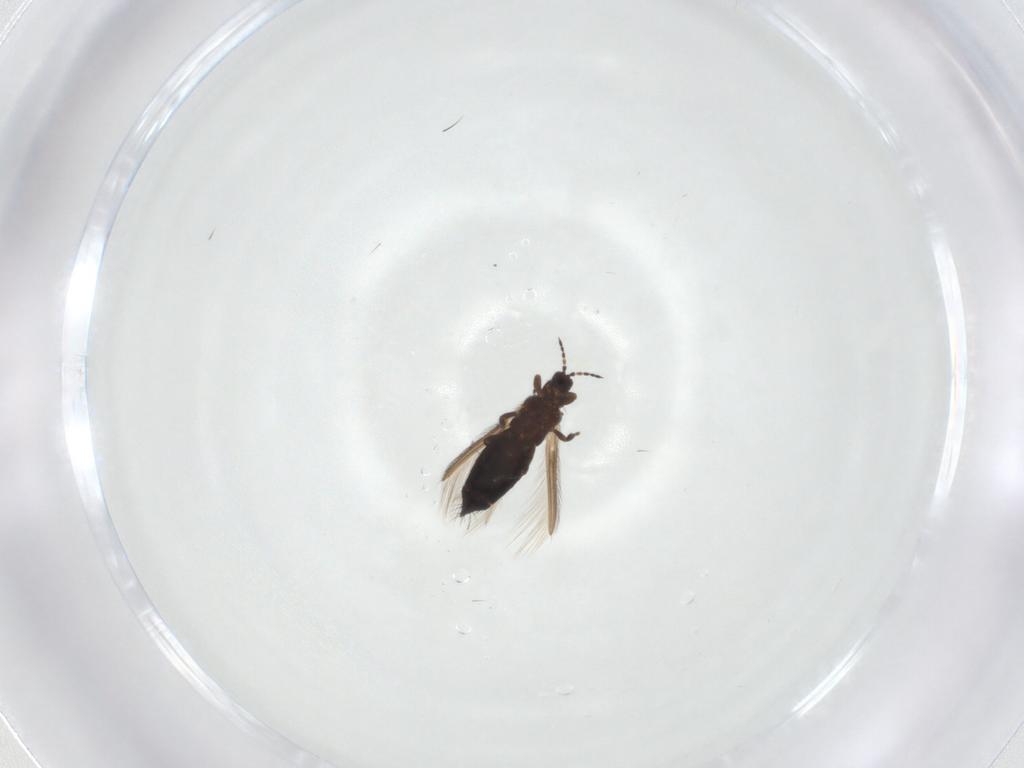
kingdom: Animalia
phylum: Arthropoda
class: Insecta
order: Thysanoptera
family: Thripidae
